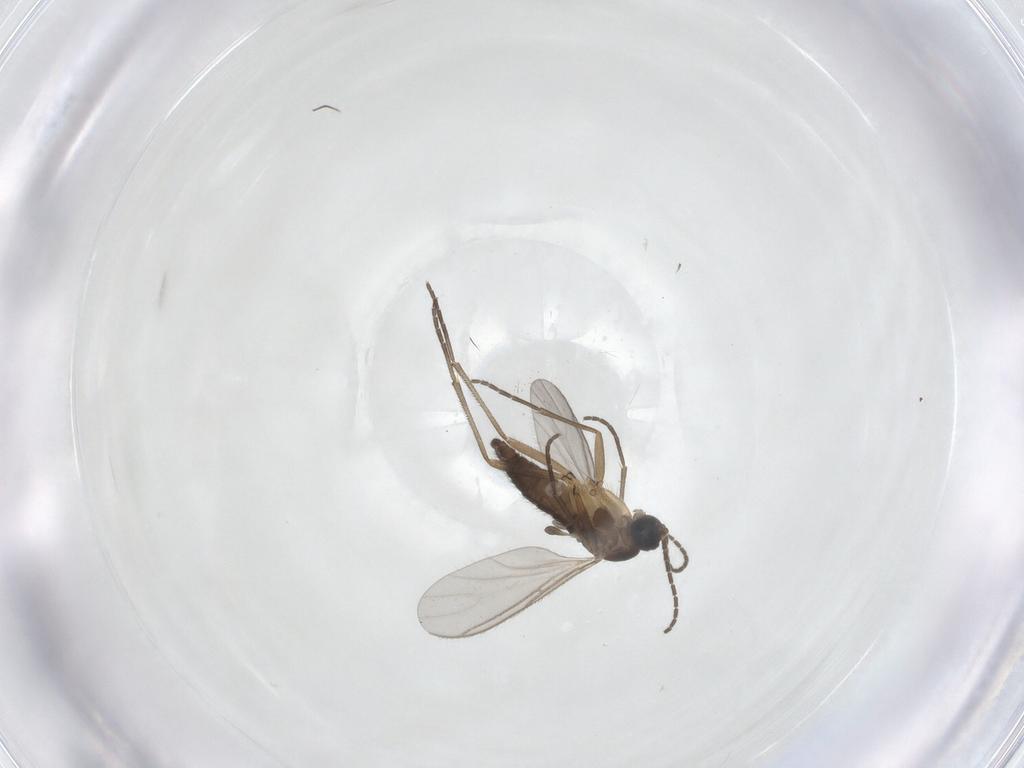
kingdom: Animalia
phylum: Arthropoda
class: Insecta
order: Diptera
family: Sciaridae
